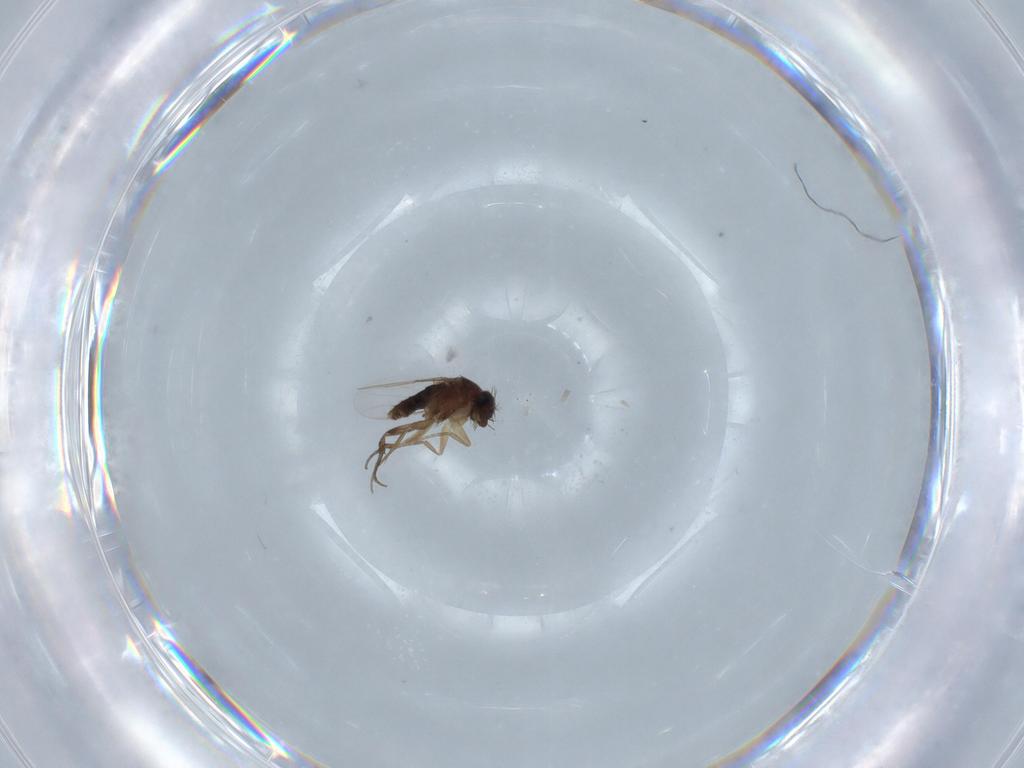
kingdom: Animalia
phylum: Arthropoda
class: Insecta
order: Diptera
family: Phoridae
